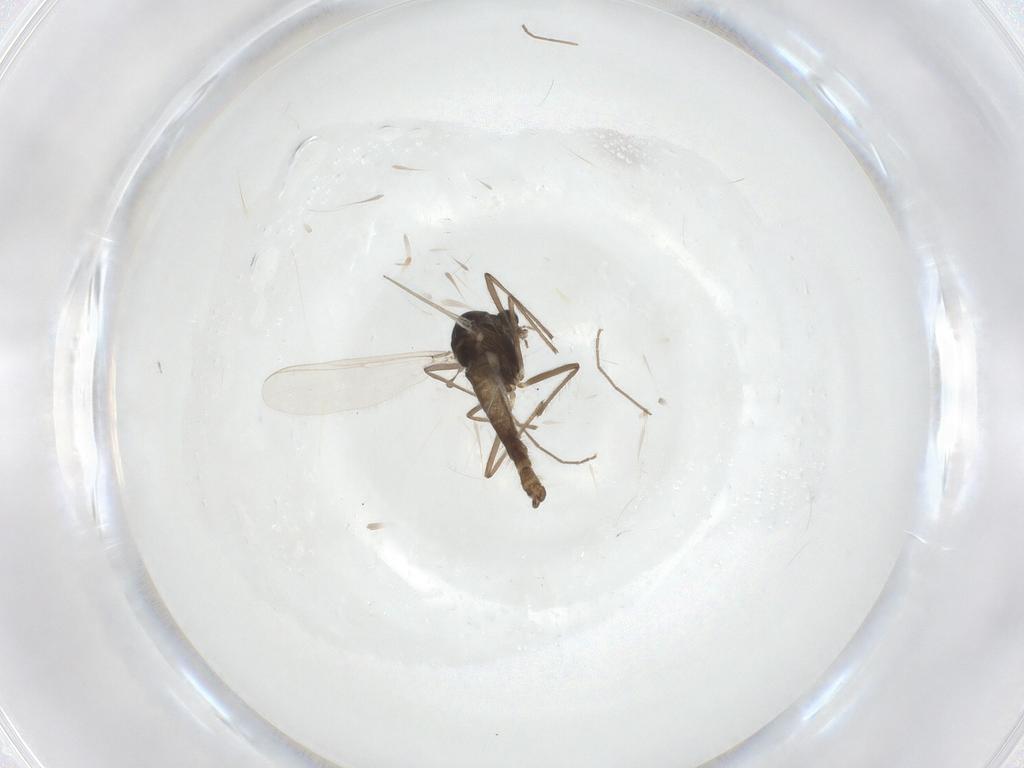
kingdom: Animalia
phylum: Arthropoda
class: Insecta
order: Diptera
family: Chironomidae
